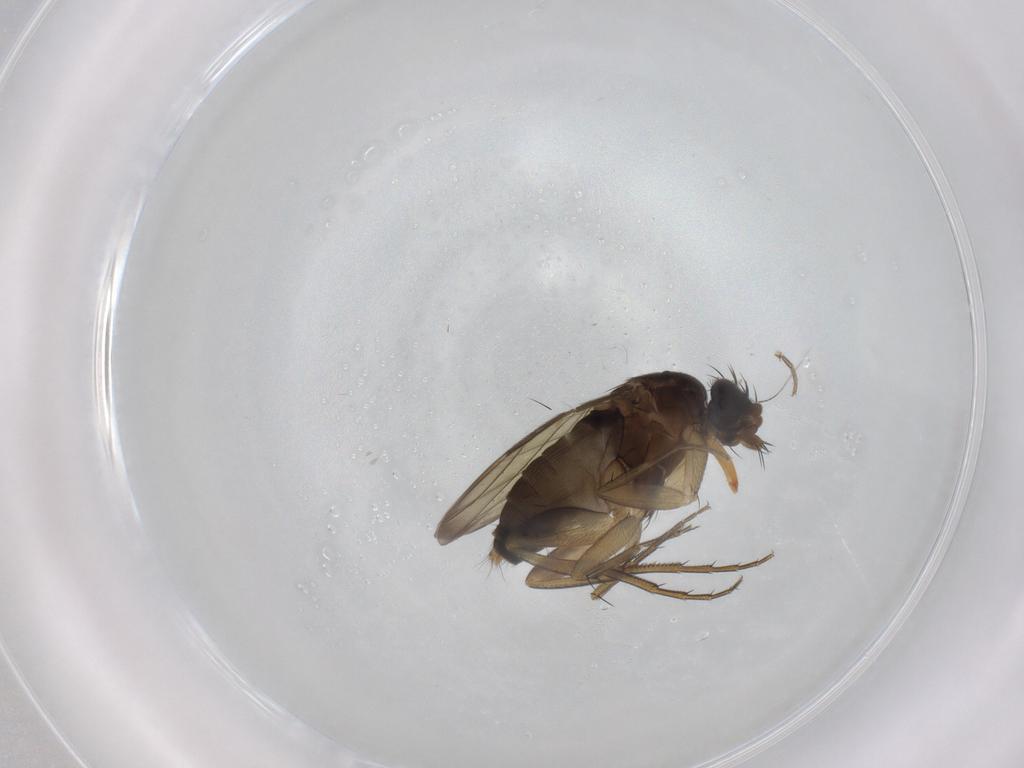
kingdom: Animalia
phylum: Arthropoda
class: Insecta
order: Diptera
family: Phoridae
